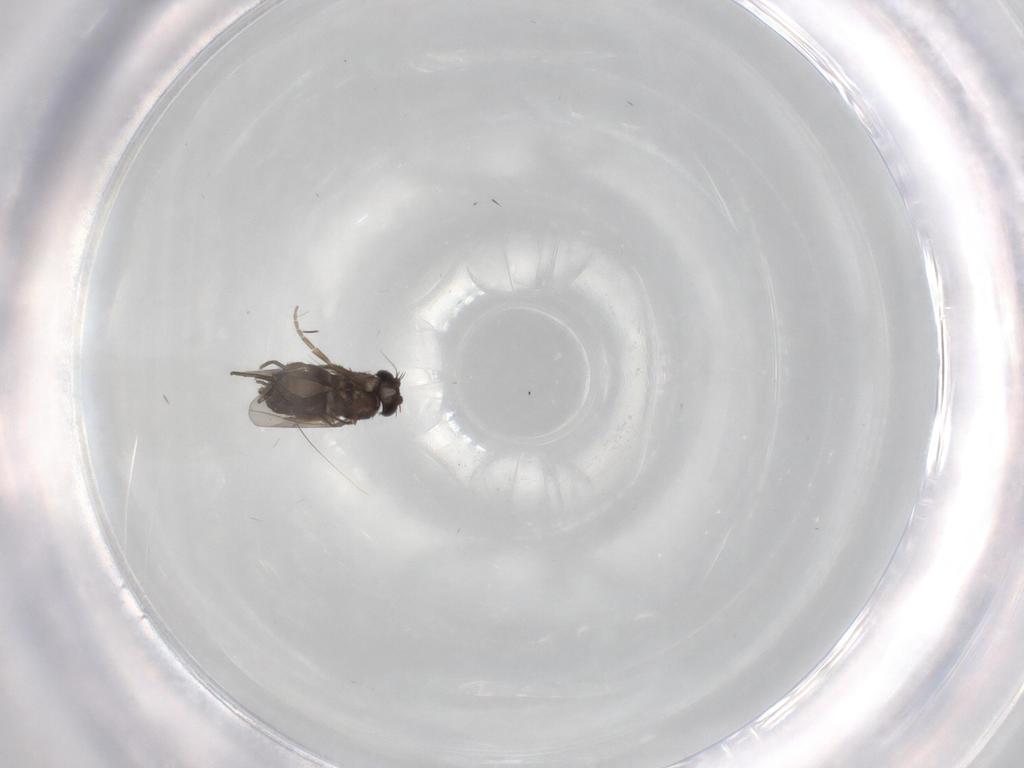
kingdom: Animalia
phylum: Arthropoda
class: Insecta
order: Diptera
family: Phoridae
